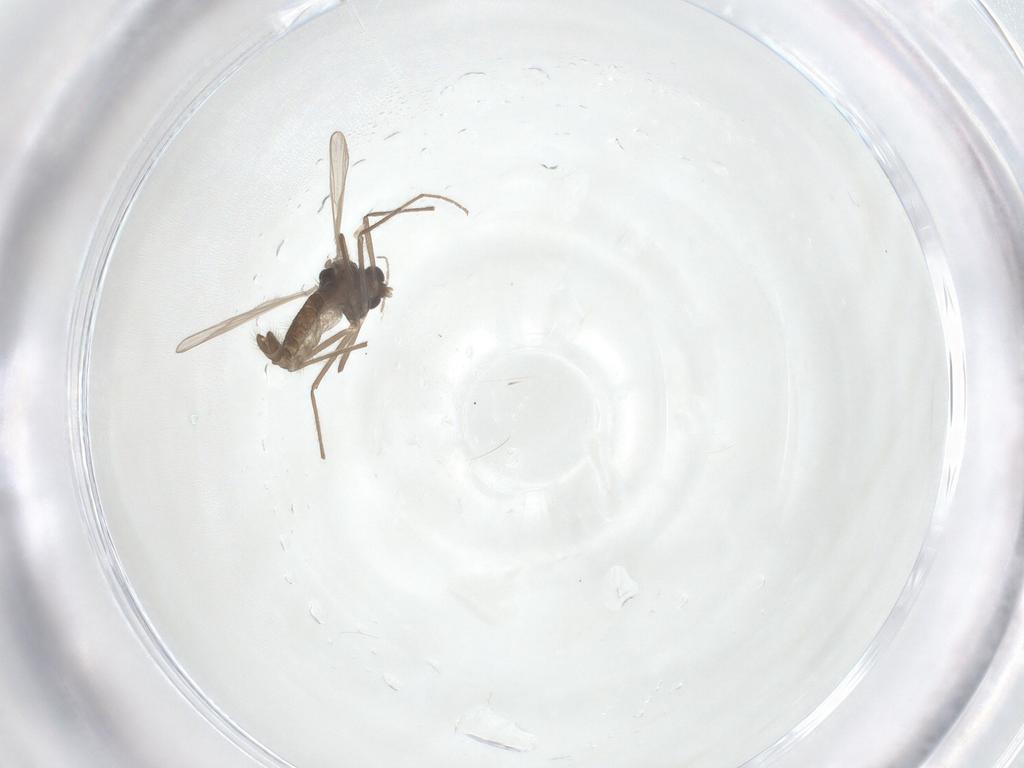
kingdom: Animalia
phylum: Arthropoda
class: Insecta
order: Diptera
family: Chironomidae
